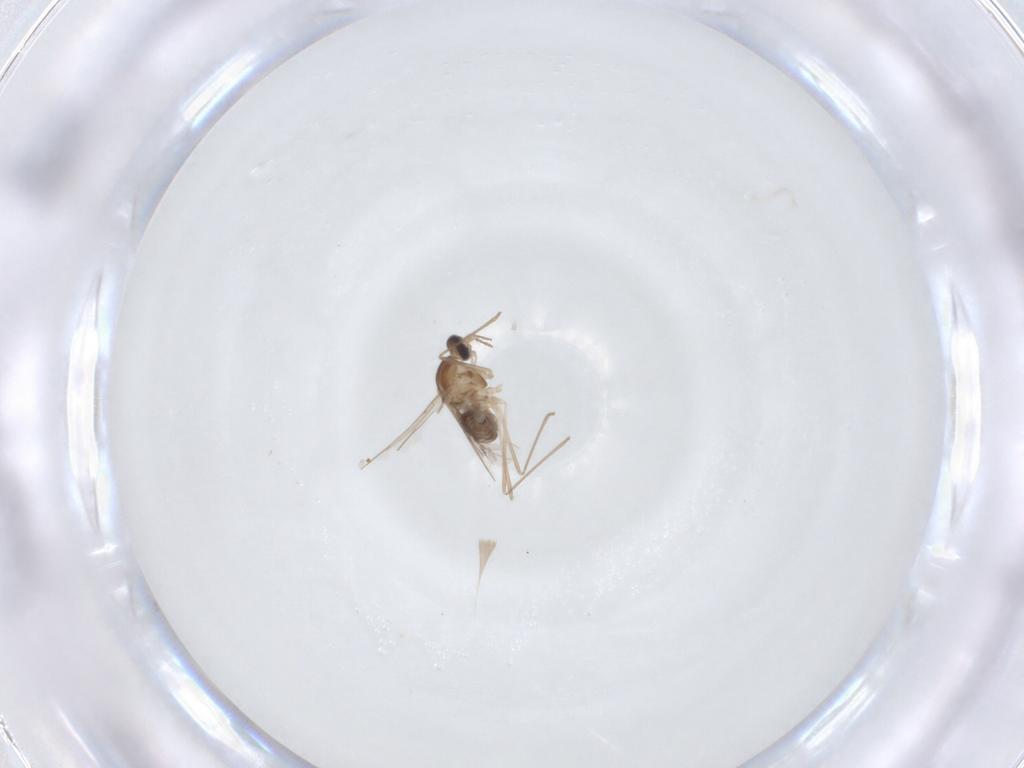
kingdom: Animalia
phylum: Arthropoda
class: Insecta
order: Diptera
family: Cecidomyiidae
